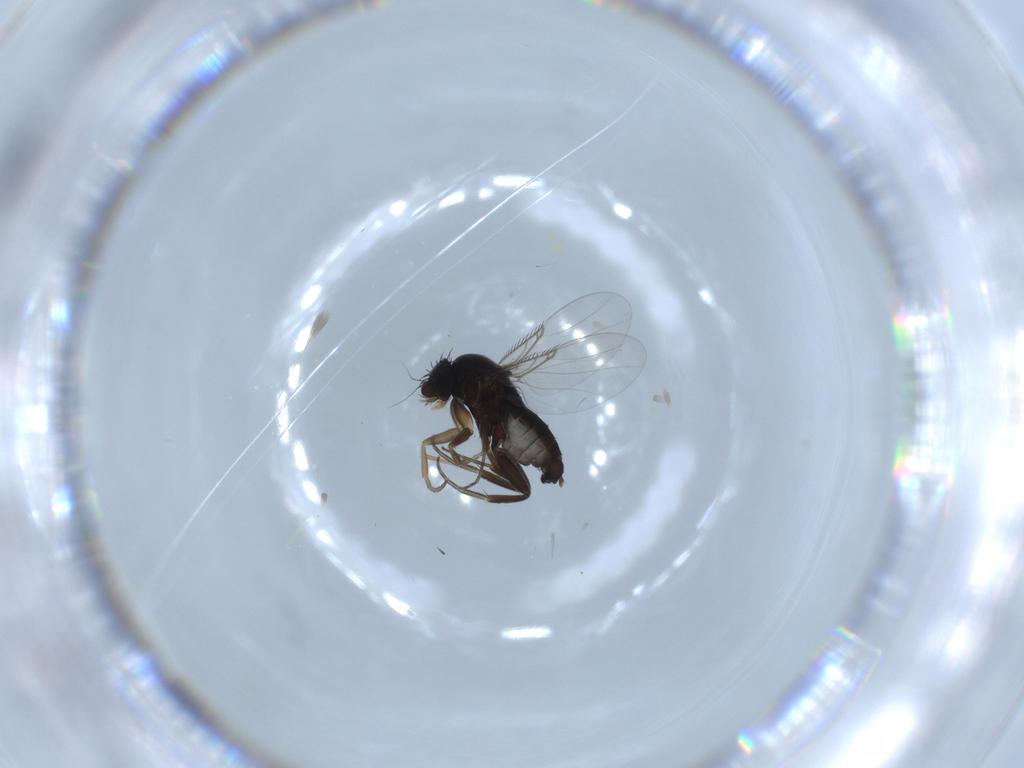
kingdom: Animalia
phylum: Arthropoda
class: Insecta
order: Diptera
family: Phoridae
